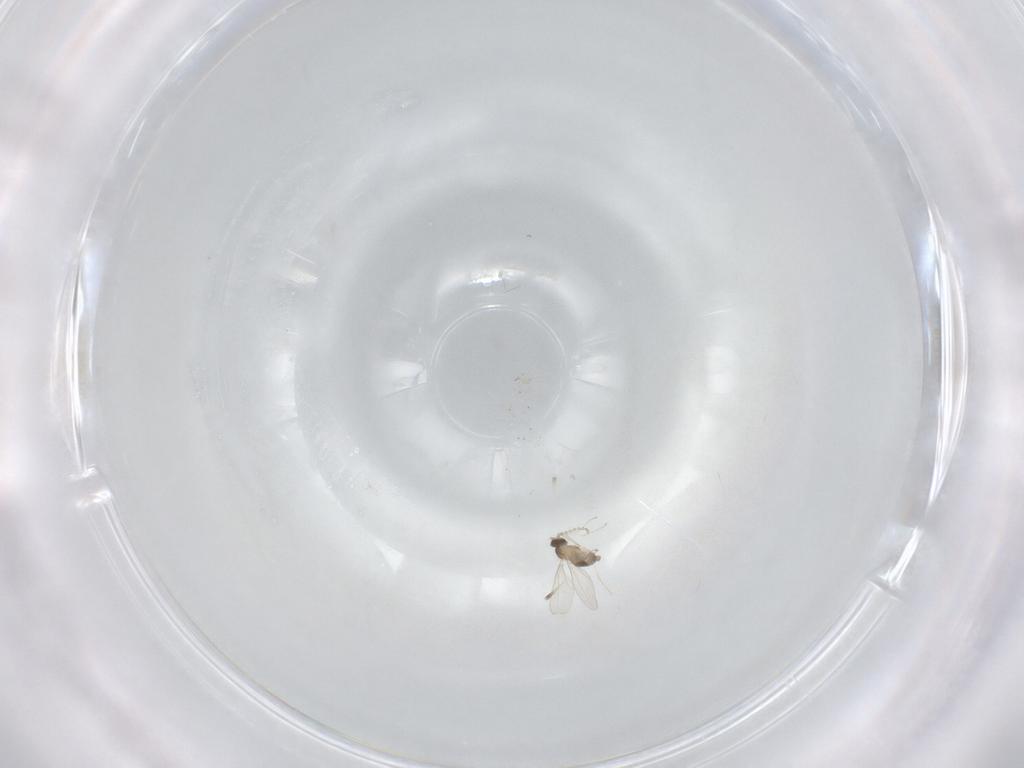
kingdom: Animalia
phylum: Arthropoda
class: Insecta
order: Diptera
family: Cecidomyiidae
